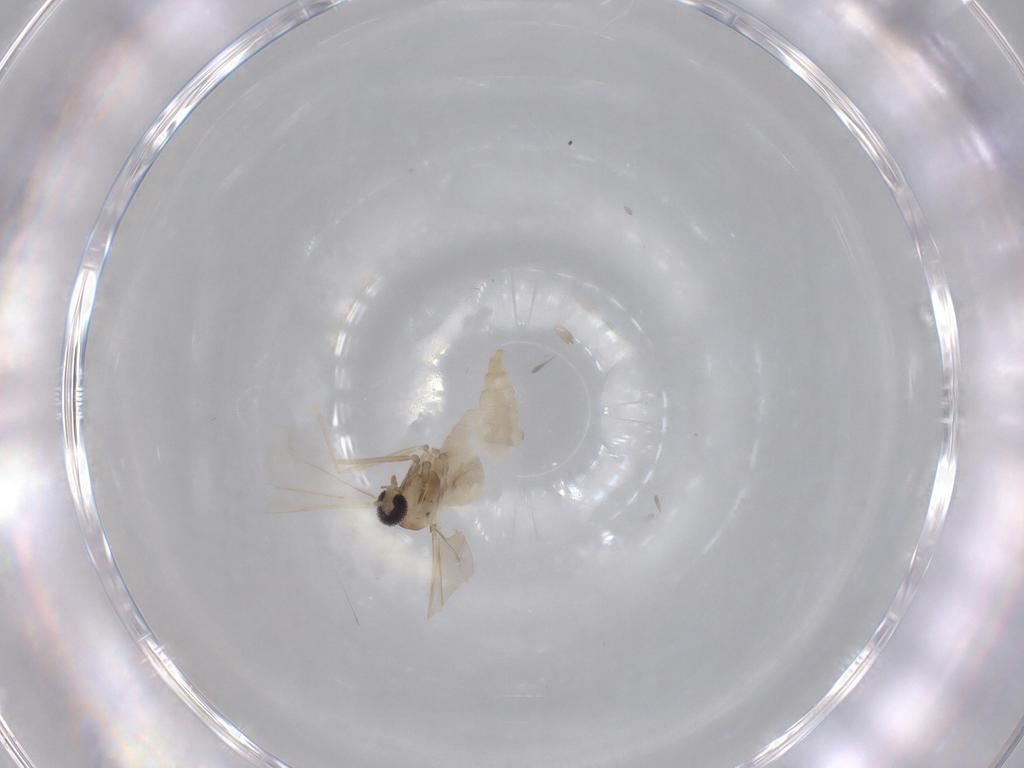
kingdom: Animalia
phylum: Arthropoda
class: Insecta
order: Diptera
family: Cecidomyiidae
